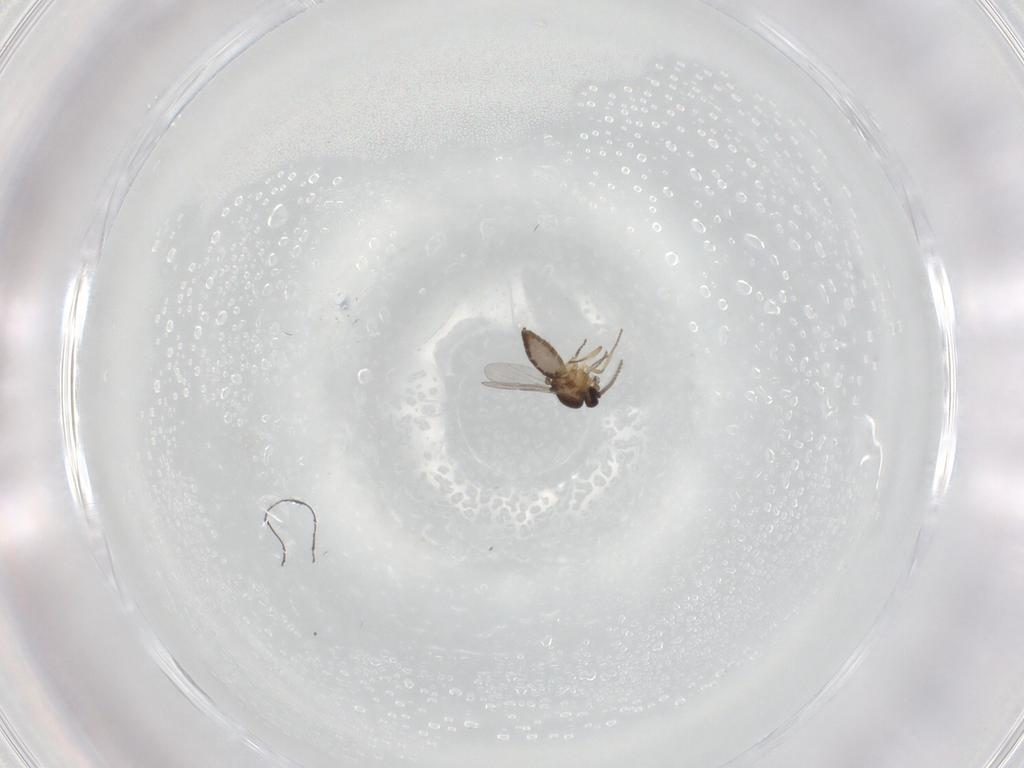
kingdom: Animalia
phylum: Arthropoda
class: Insecta
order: Diptera
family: Ceratopogonidae
